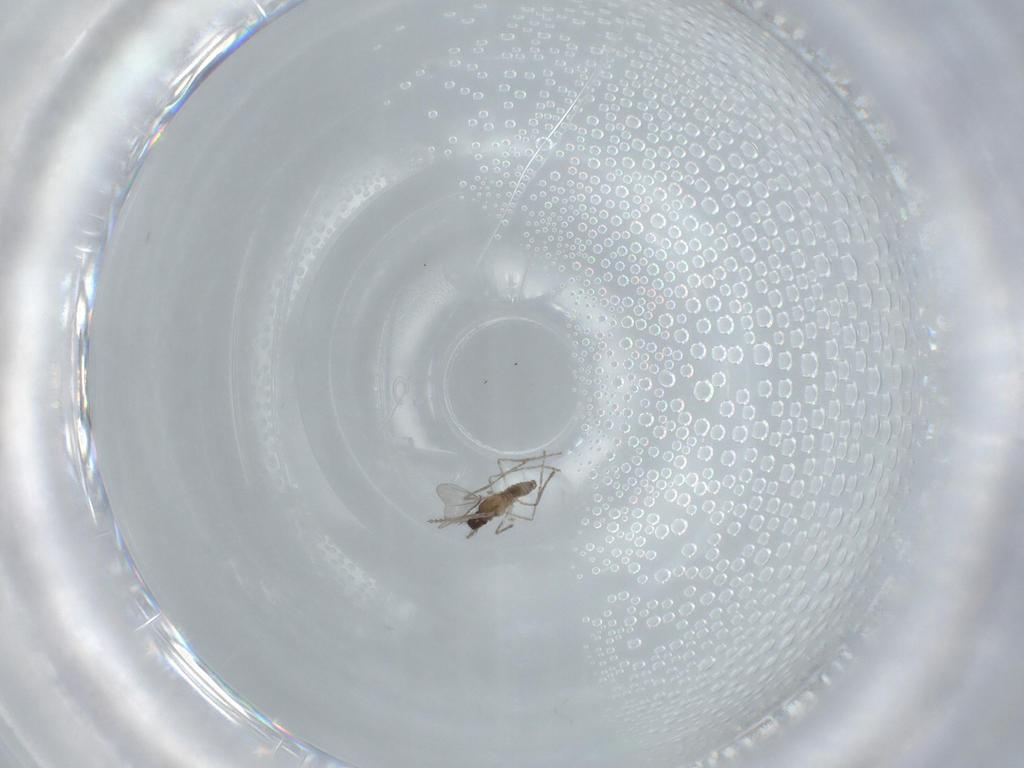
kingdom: Animalia
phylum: Arthropoda
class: Insecta
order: Diptera
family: Cecidomyiidae
